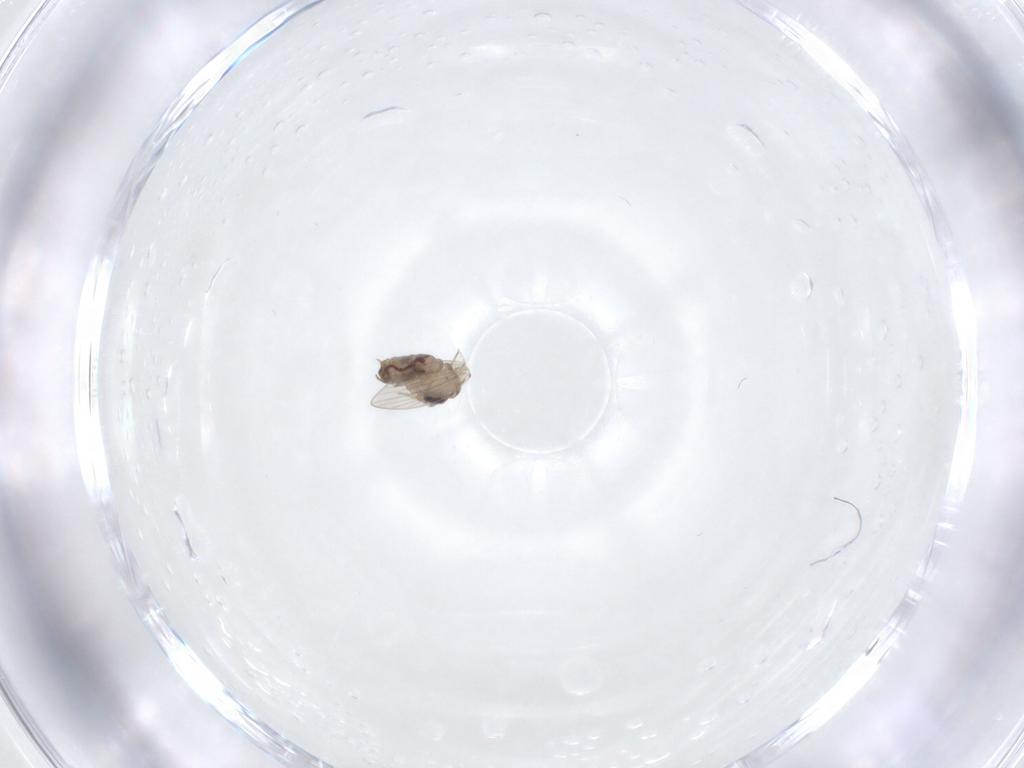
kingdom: Animalia
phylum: Arthropoda
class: Insecta
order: Diptera
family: Psychodidae
